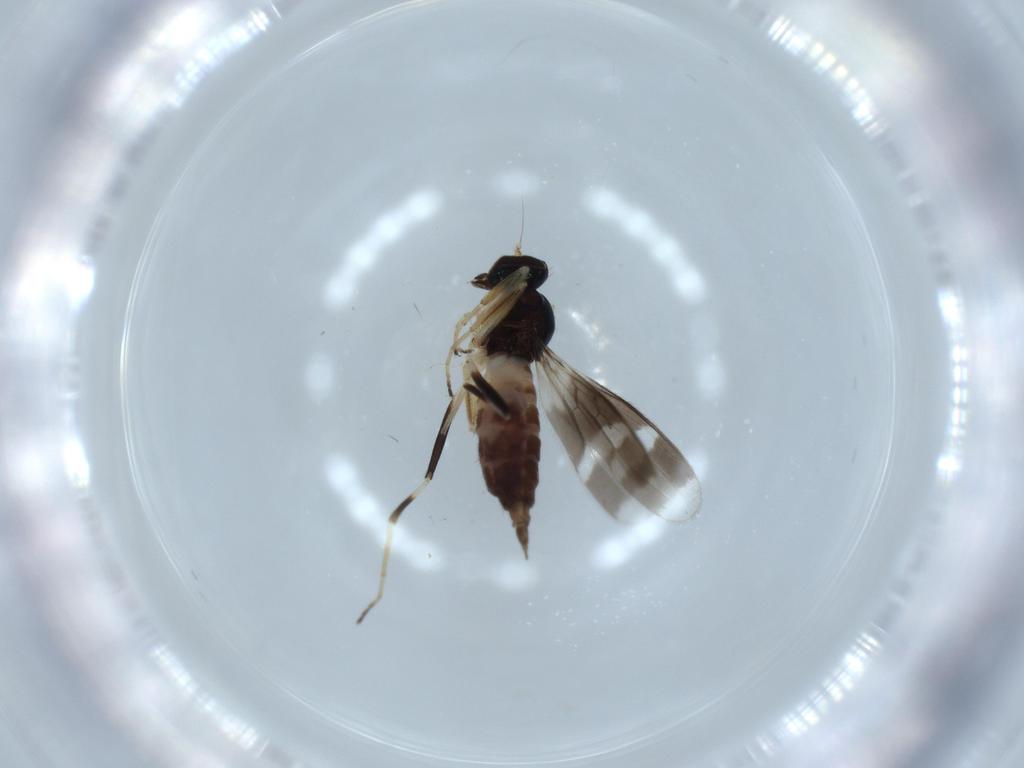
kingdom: Animalia
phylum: Arthropoda
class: Insecta
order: Diptera
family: Hybotidae
